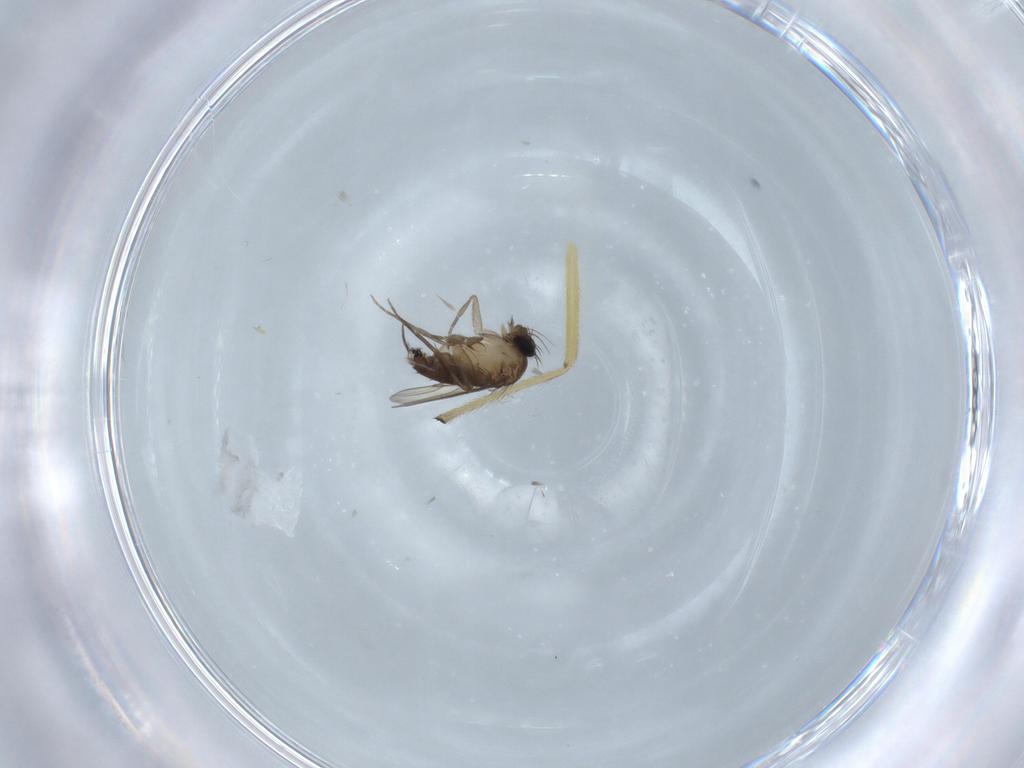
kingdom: Animalia
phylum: Arthropoda
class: Insecta
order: Diptera
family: Phoridae
